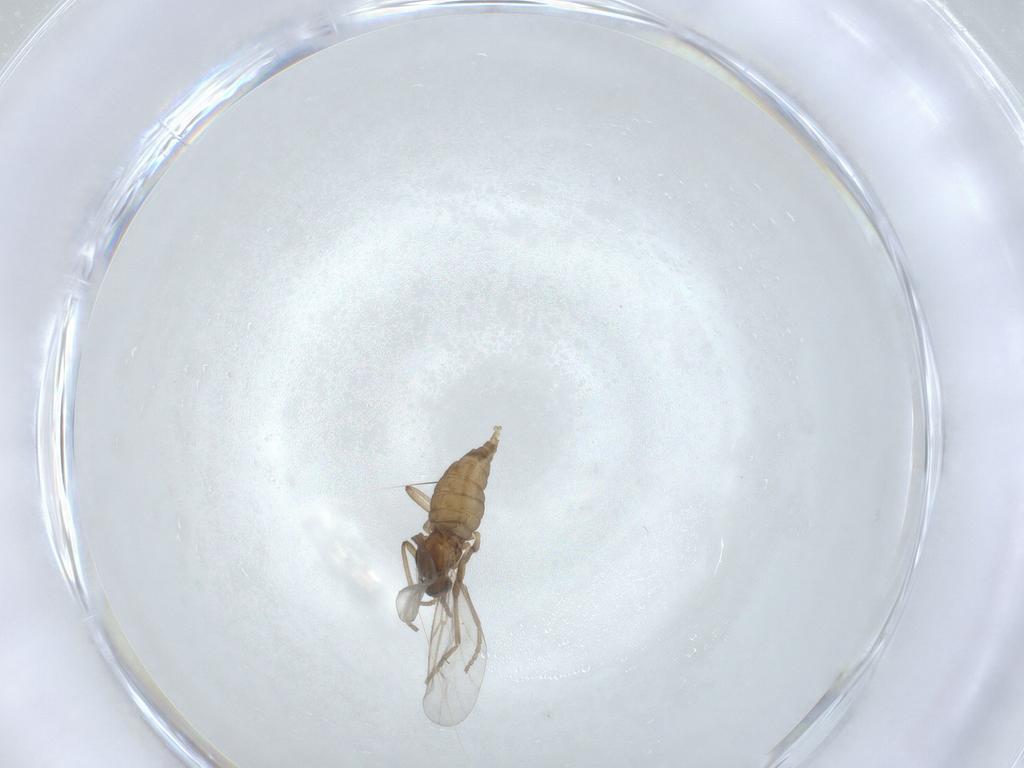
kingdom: Animalia
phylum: Arthropoda
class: Insecta
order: Diptera
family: Cecidomyiidae
